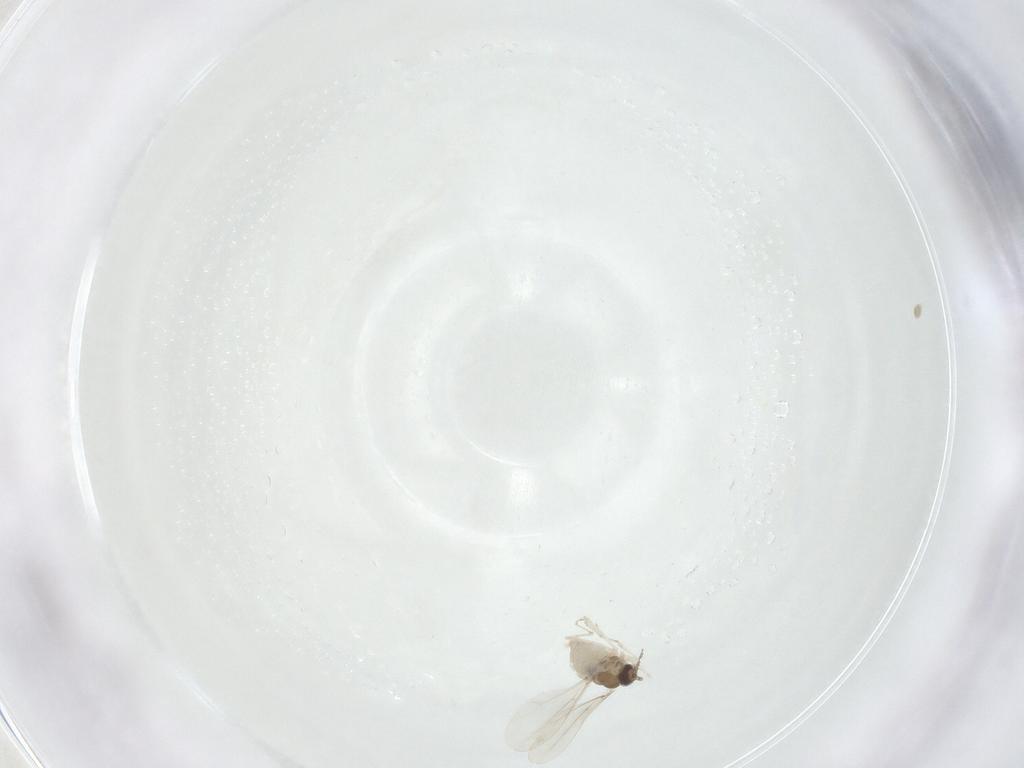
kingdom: Animalia
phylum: Arthropoda
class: Insecta
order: Diptera
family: Cecidomyiidae
